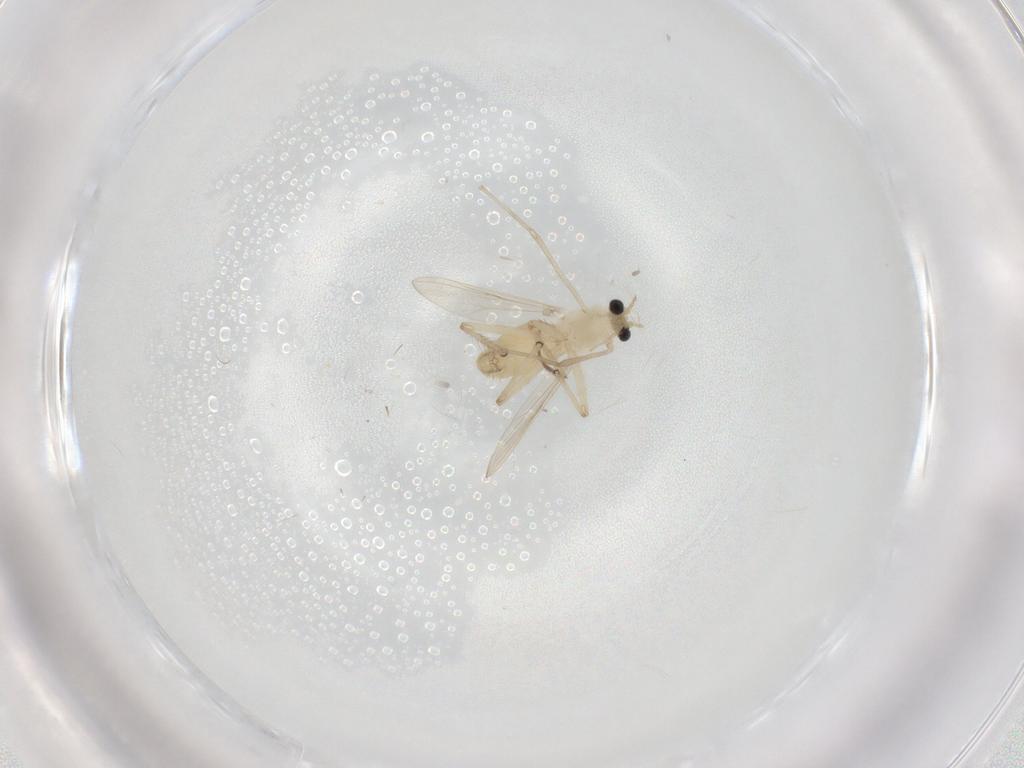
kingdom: Animalia
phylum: Arthropoda
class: Insecta
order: Diptera
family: Chironomidae
